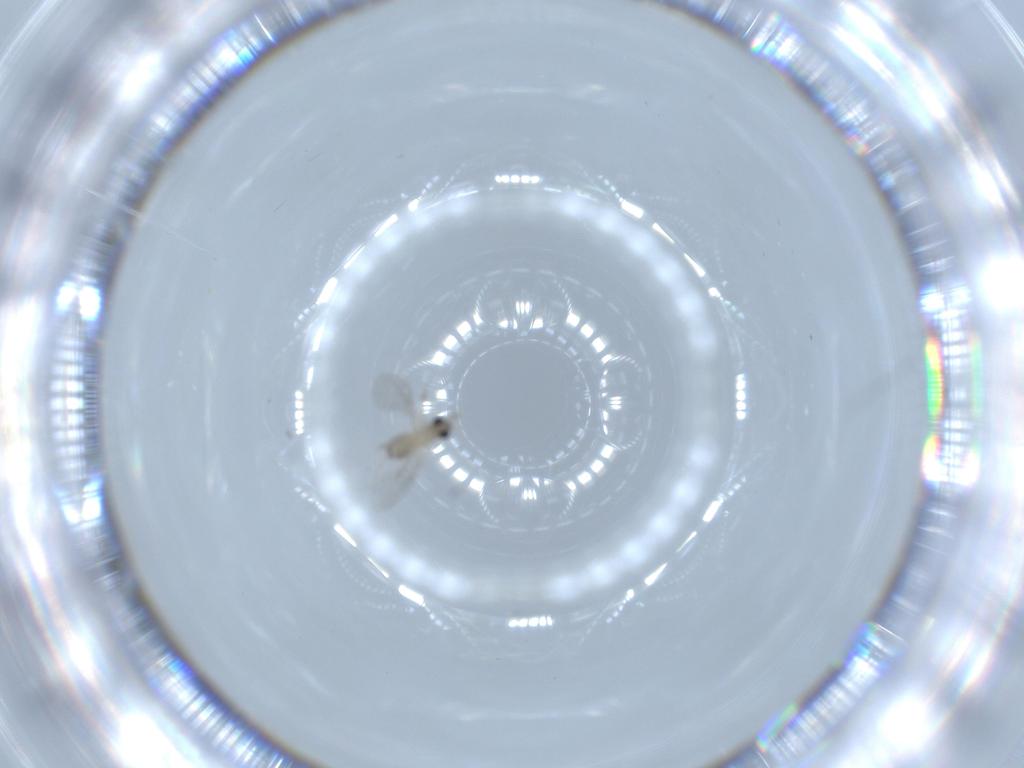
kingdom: Animalia
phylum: Arthropoda
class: Insecta
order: Diptera
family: Cecidomyiidae
